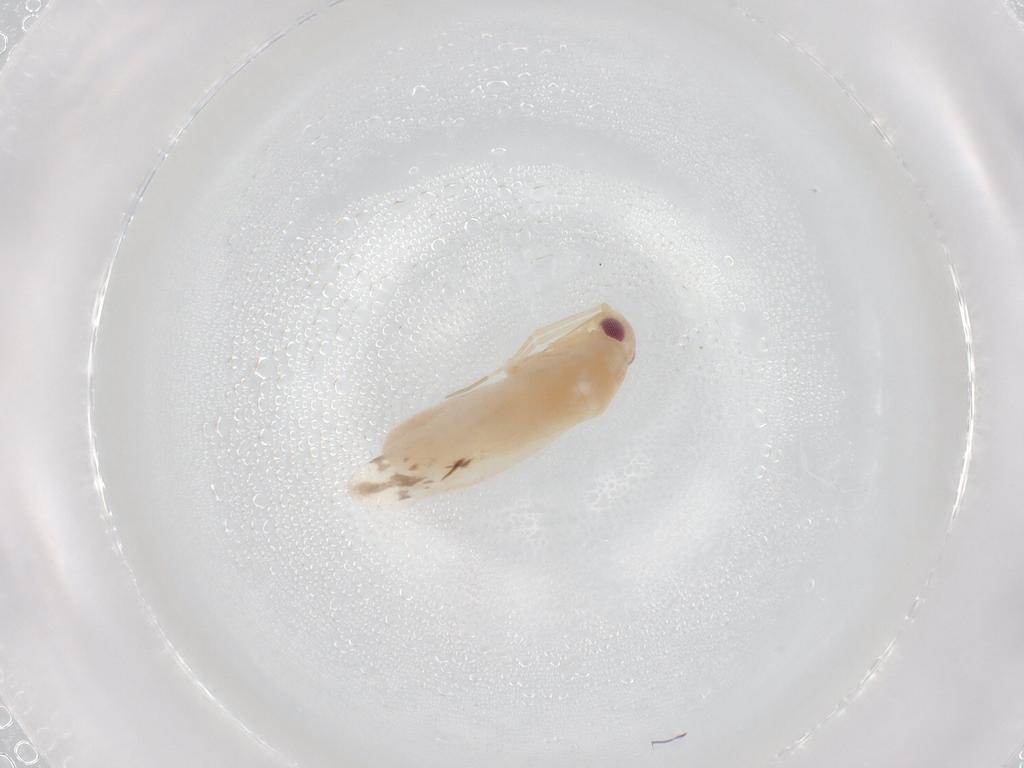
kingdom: Animalia
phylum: Arthropoda
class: Insecta
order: Hemiptera
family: Miridae
